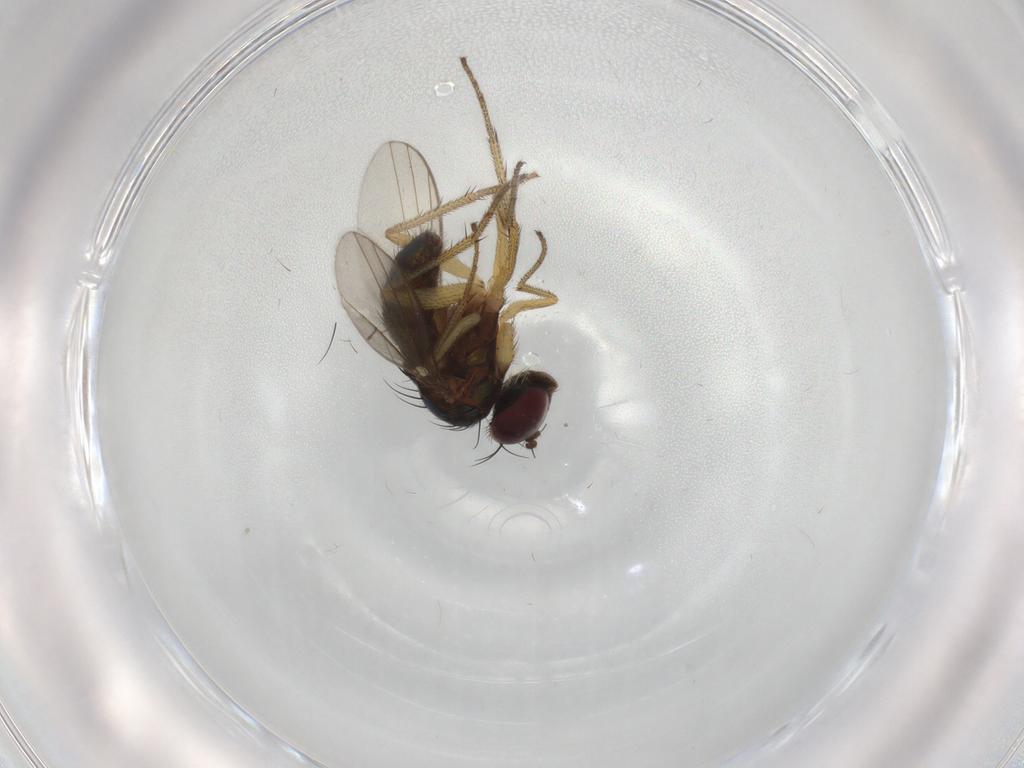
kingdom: Animalia
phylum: Arthropoda
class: Insecta
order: Diptera
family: Dolichopodidae
